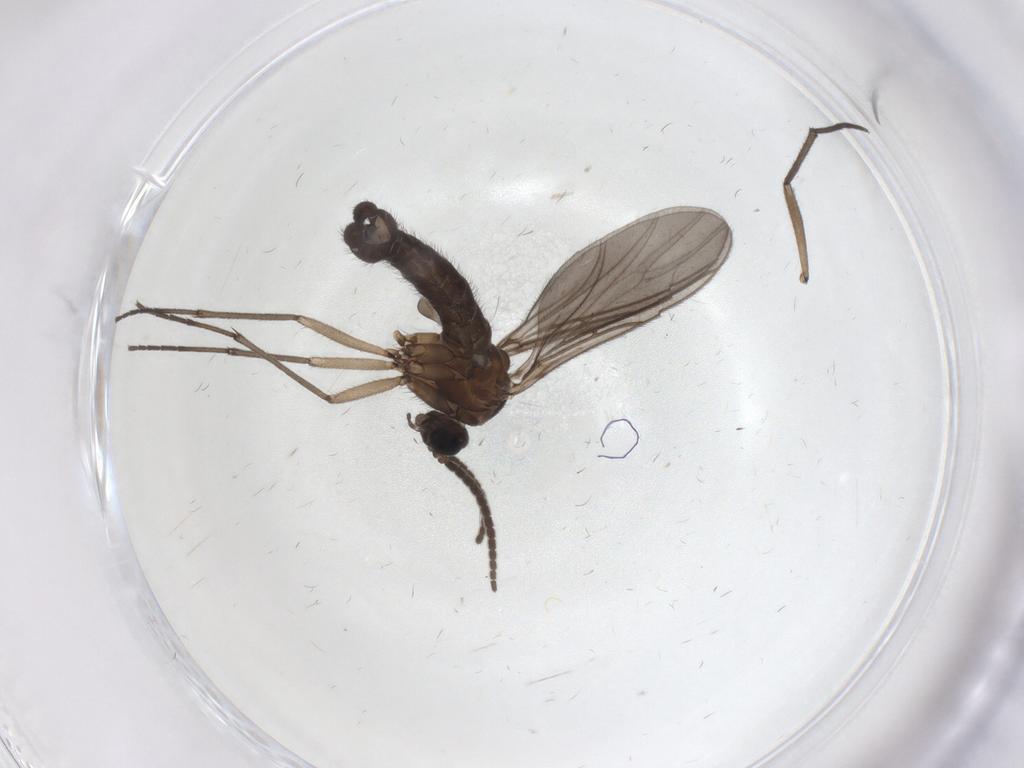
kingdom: Animalia
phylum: Arthropoda
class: Insecta
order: Diptera
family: Sciaridae
